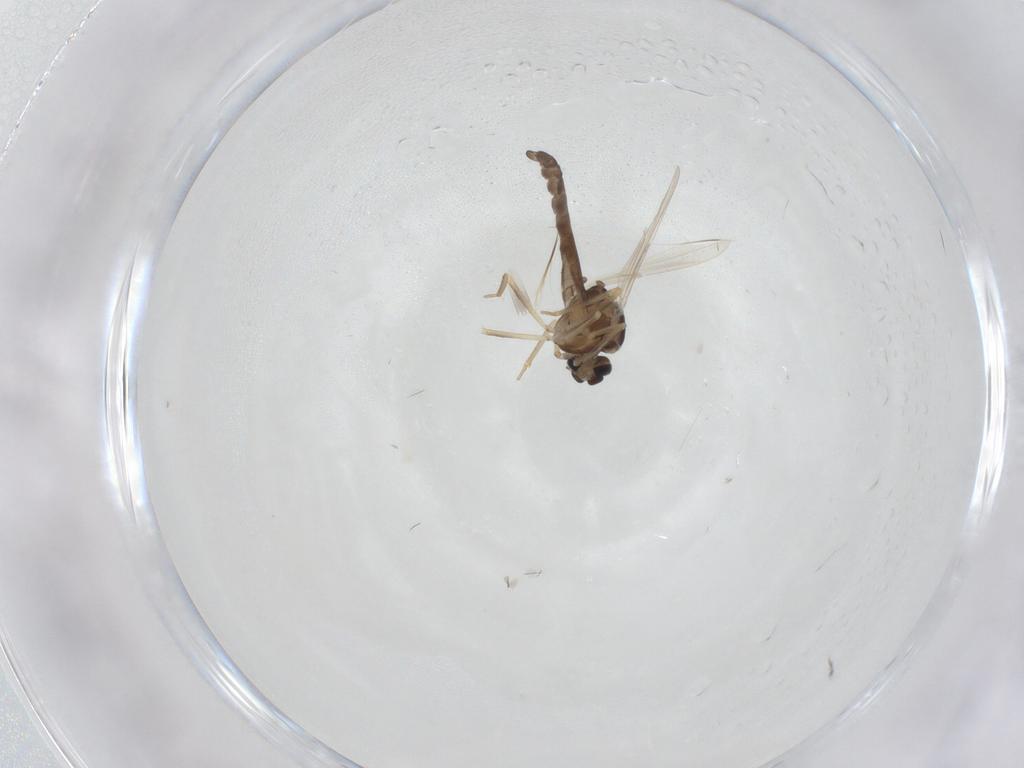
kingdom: Animalia
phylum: Arthropoda
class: Insecta
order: Diptera
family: Ceratopogonidae
